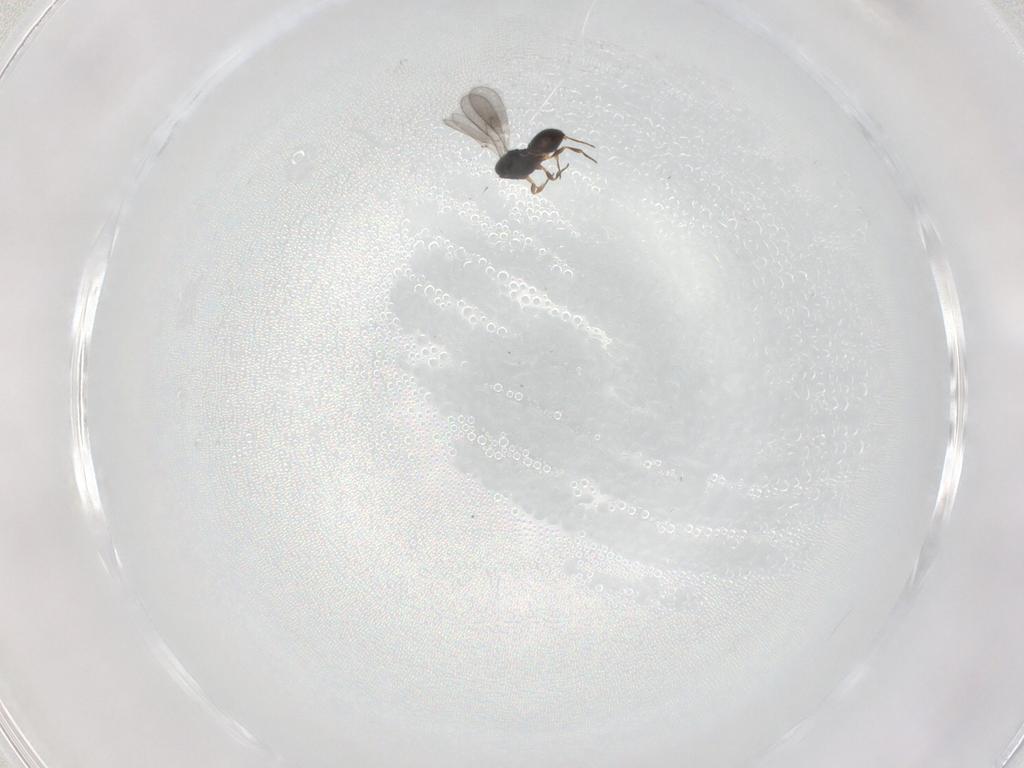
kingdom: Animalia
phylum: Arthropoda
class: Insecta
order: Hymenoptera
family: Scelionidae
